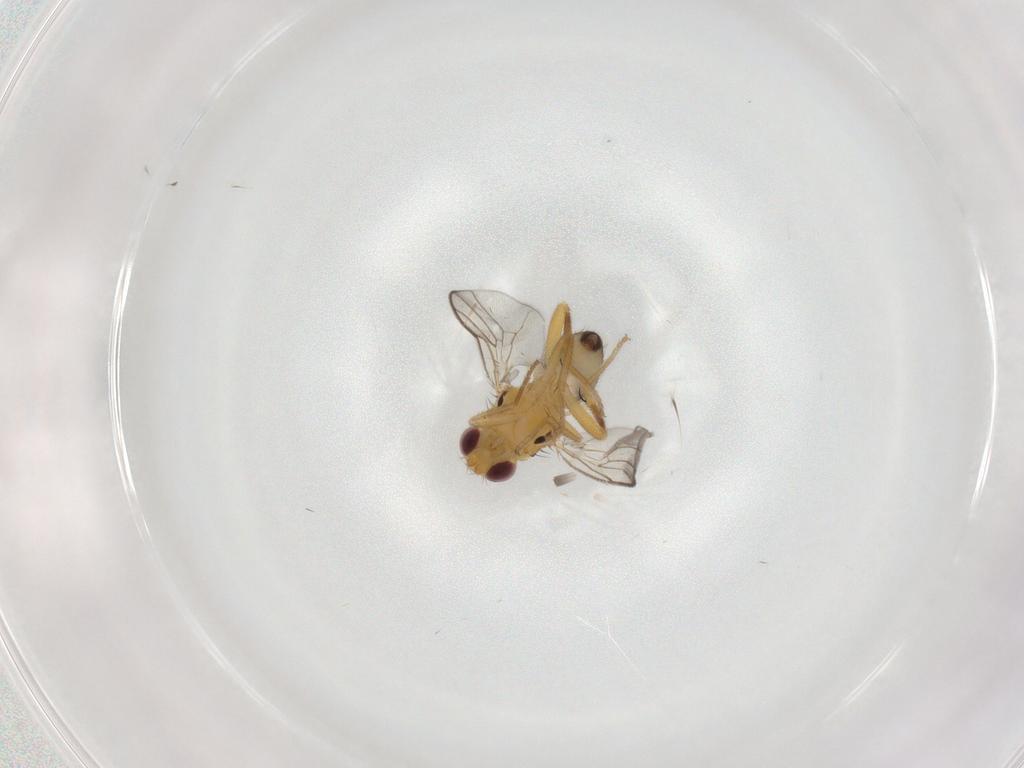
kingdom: Animalia
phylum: Arthropoda
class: Insecta
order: Diptera
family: Chloropidae
